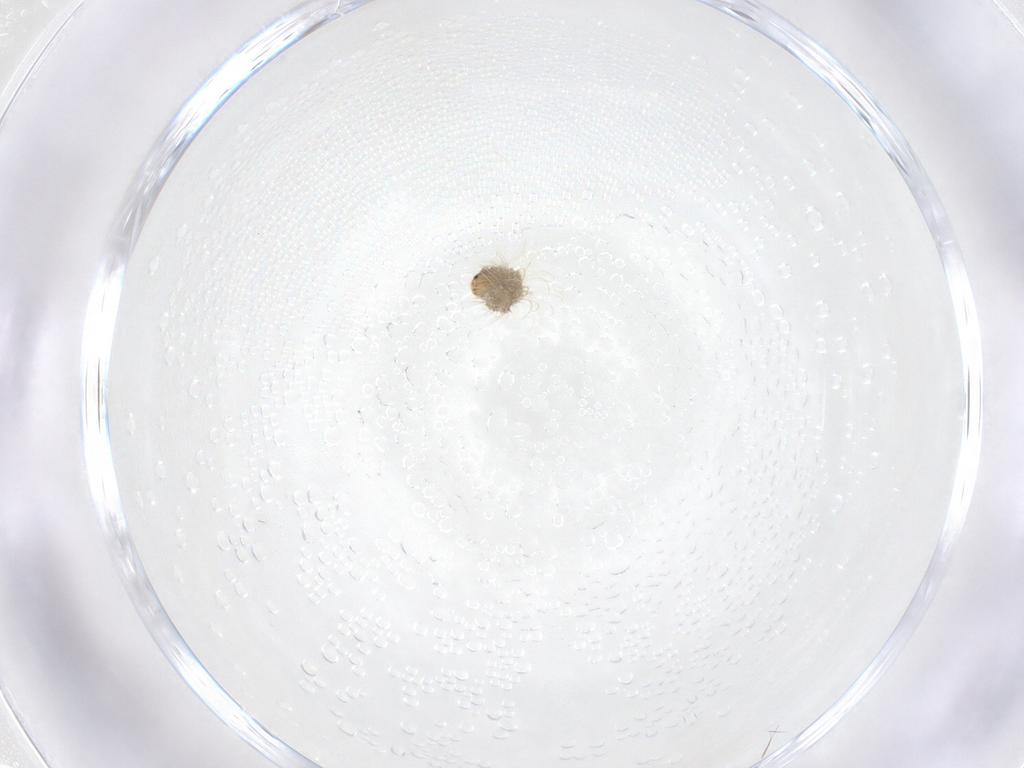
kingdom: Animalia
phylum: Arthropoda
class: Insecta
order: Lepidoptera
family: Lycaenidae
